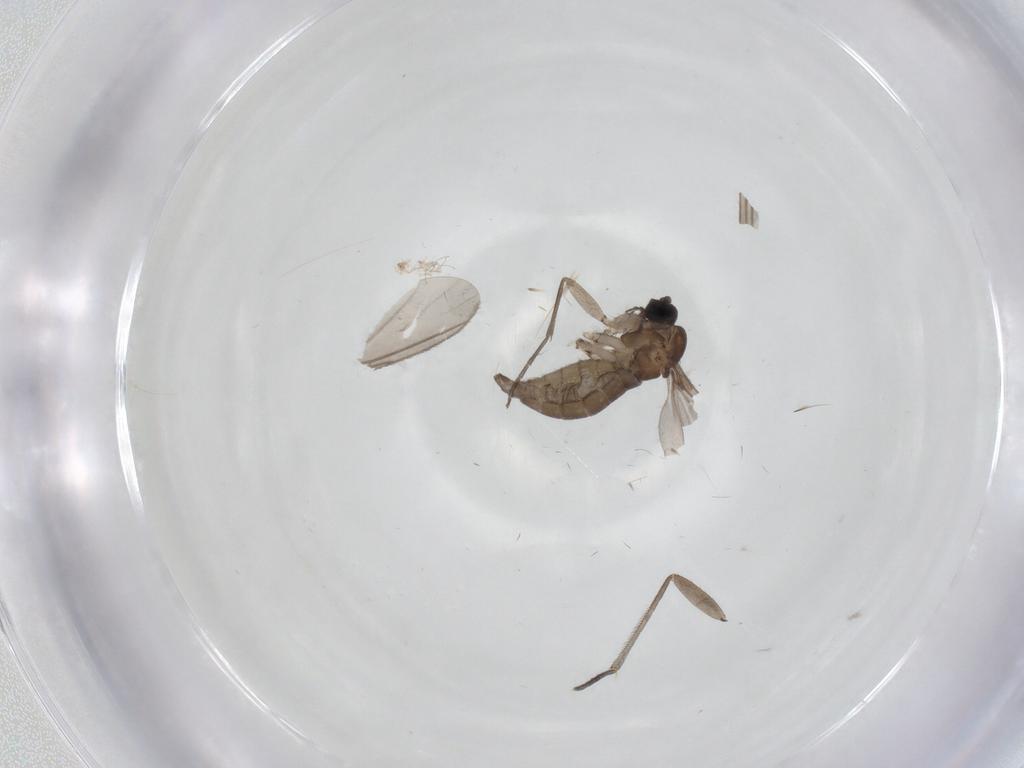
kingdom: Animalia
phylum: Arthropoda
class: Insecta
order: Diptera
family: Sciaridae
